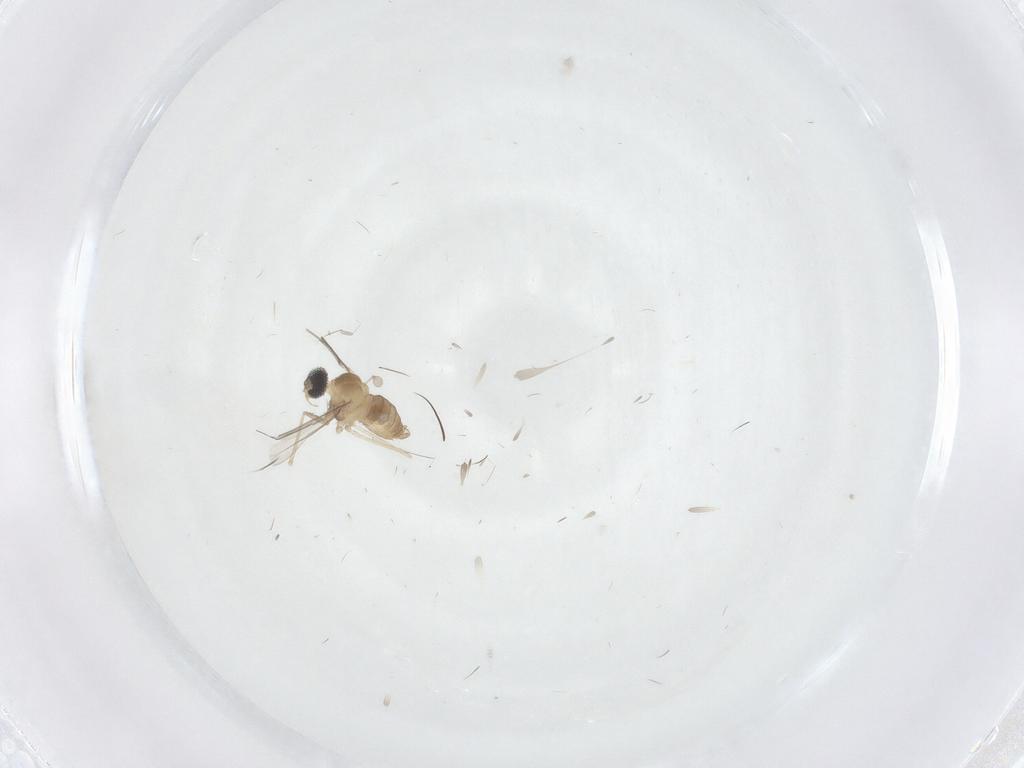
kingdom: Animalia
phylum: Arthropoda
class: Insecta
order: Diptera
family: Cecidomyiidae
